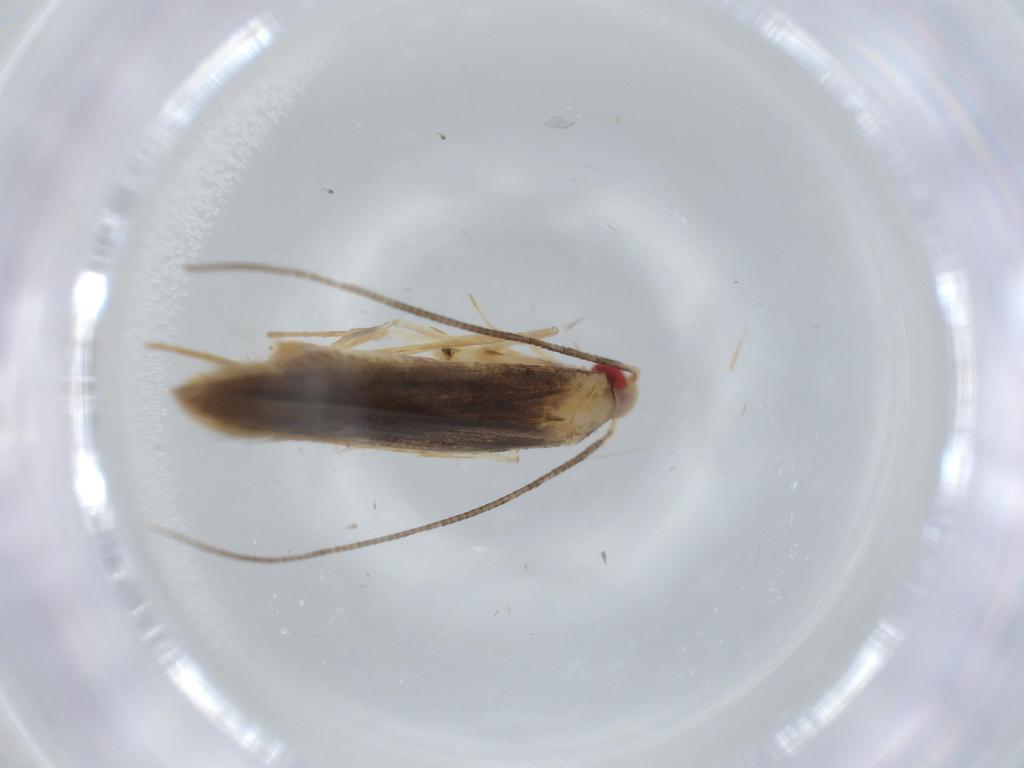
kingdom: Animalia
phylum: Arthropoda
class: Insecta
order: Lepidoptera
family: Gracillariidae
